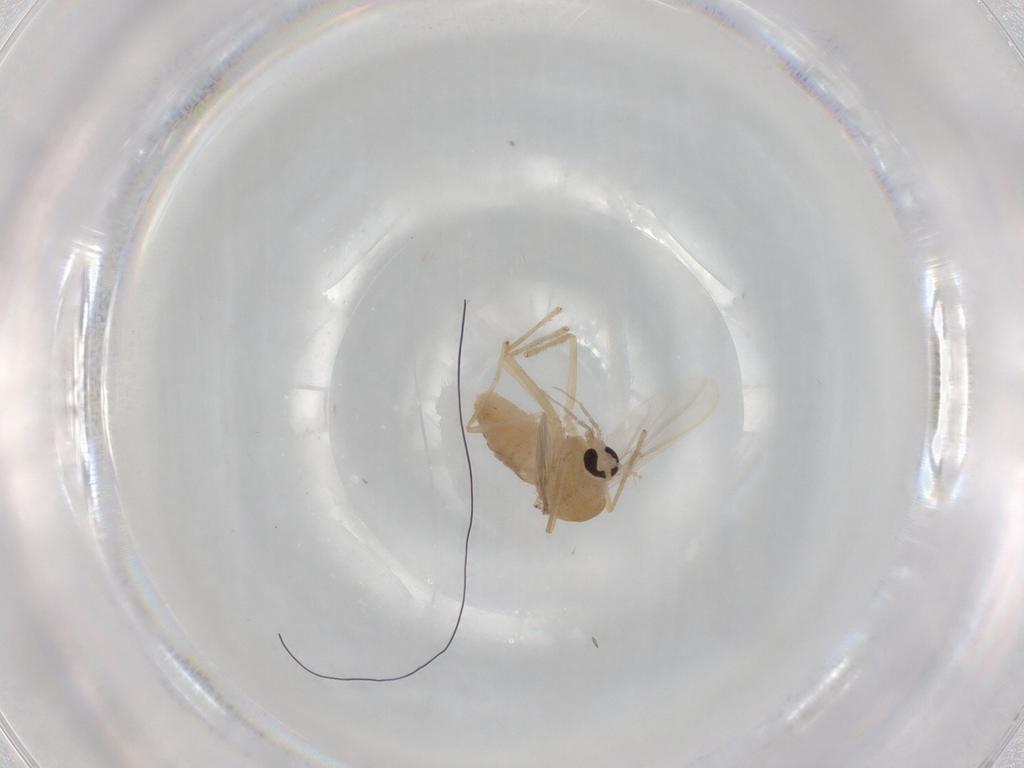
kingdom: Animalia
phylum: Arthropoda
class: Insecta
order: Diptera
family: Chironomidae
